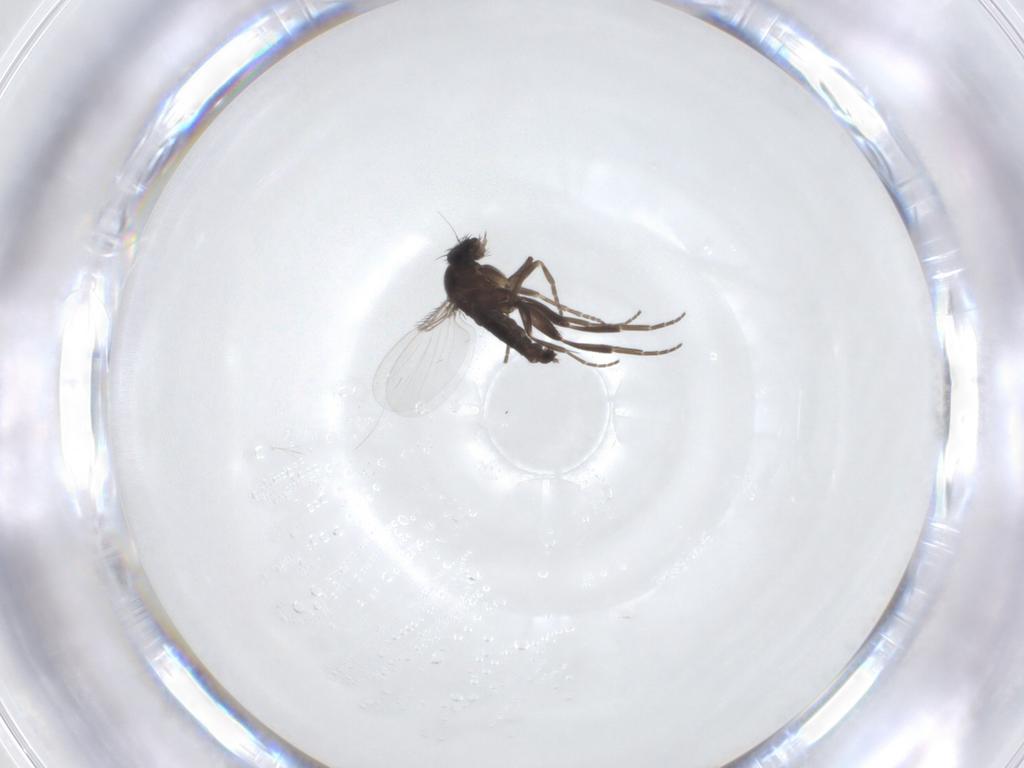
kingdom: Animalia
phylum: Arthropoda
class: Insecta
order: Diptera
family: Phoridae
